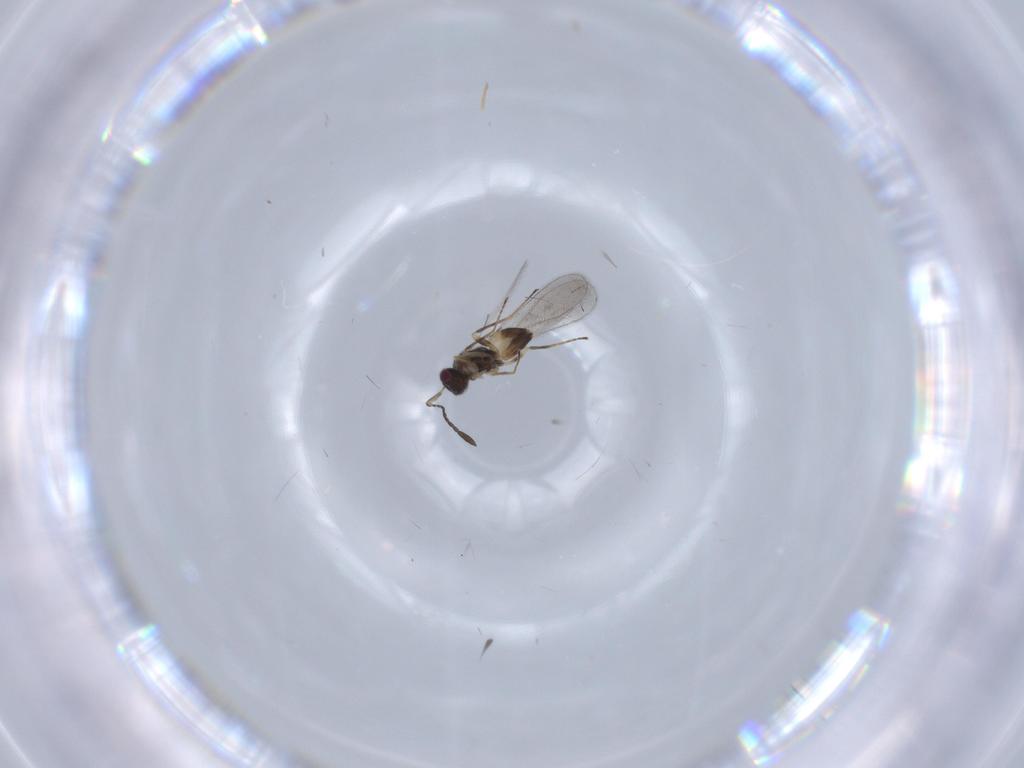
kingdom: Animalia
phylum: Arthropoda
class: Insecta
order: Hymenoptera
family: Mymaridae
